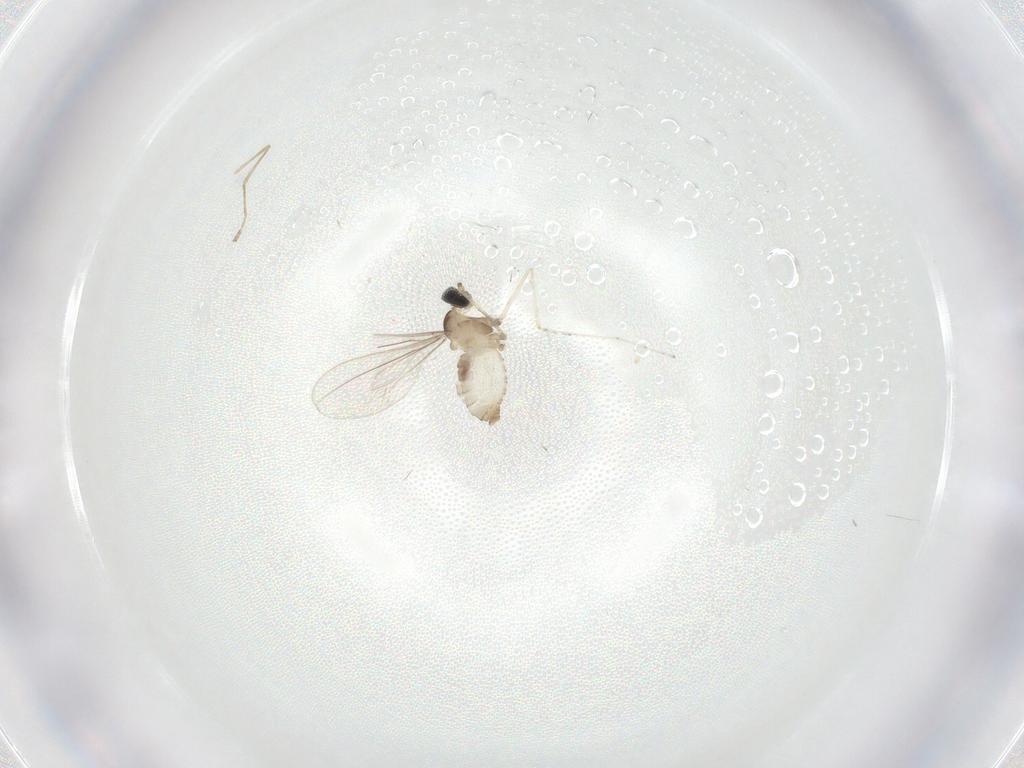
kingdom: Animalia
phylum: Arthropoda
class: Insecta
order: Diptera
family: Cecidomyiidae
